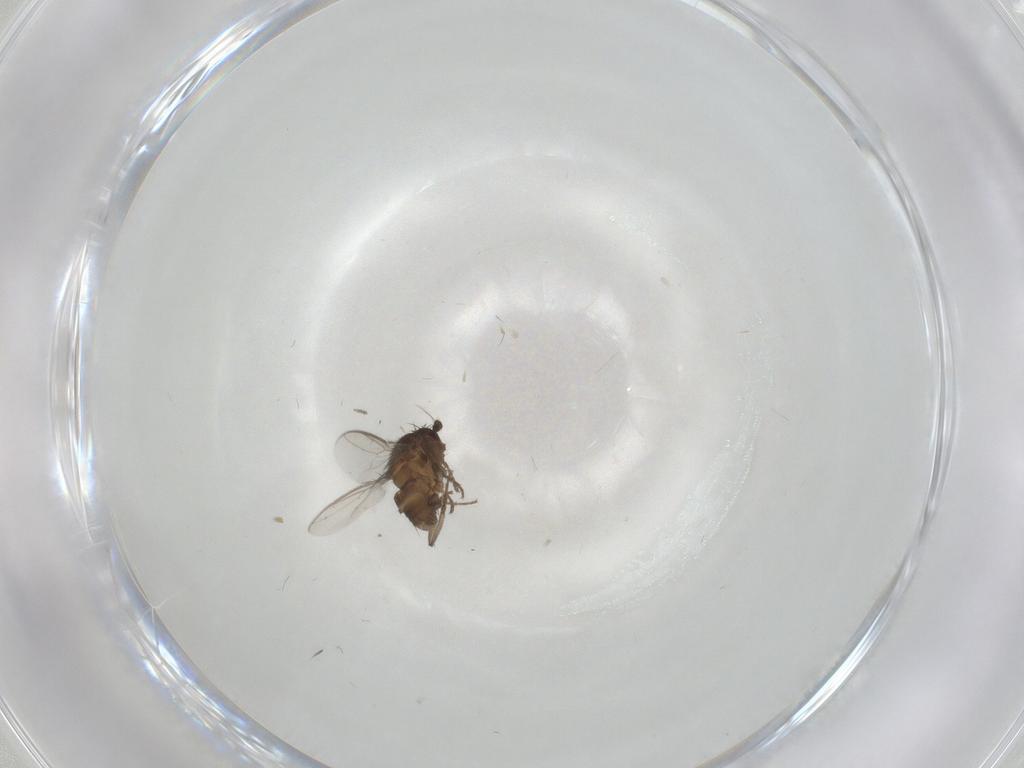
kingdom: Animalia
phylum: Arthropoda
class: Insecta
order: Diptera
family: Sphaeroceridae
